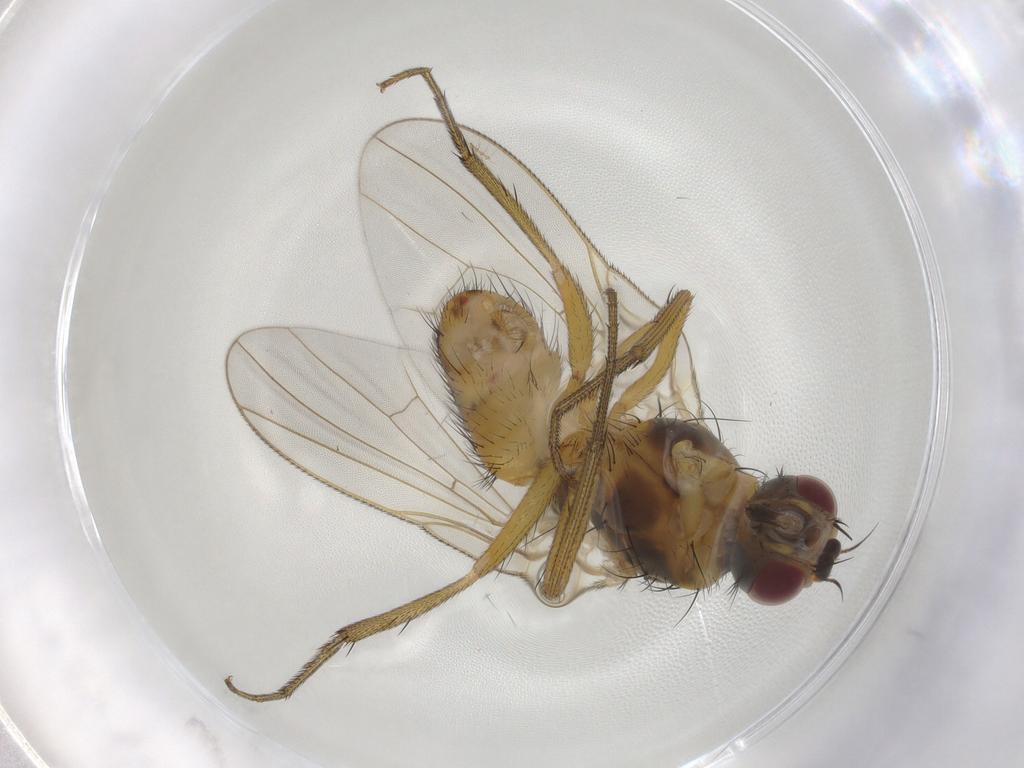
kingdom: Animalia
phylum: Arthropoda
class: Insecta
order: Diptera
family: Muscidae
